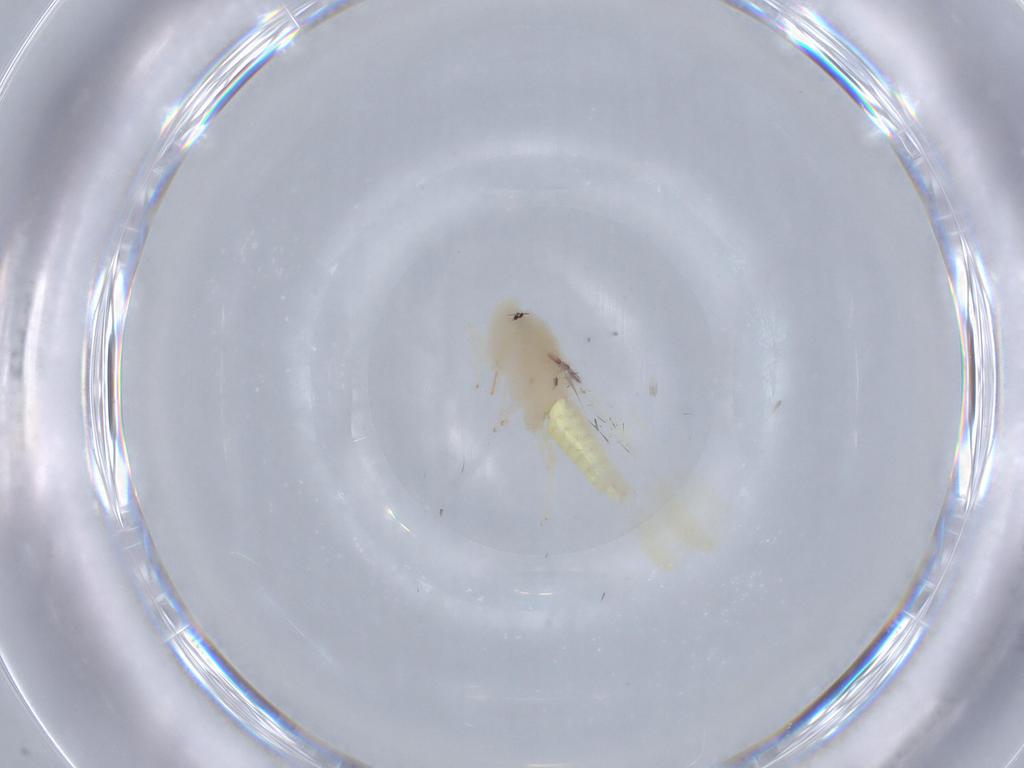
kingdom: Animalia
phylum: Arthropoda
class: Insecta
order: Hemiptera
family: Cicadellidae
